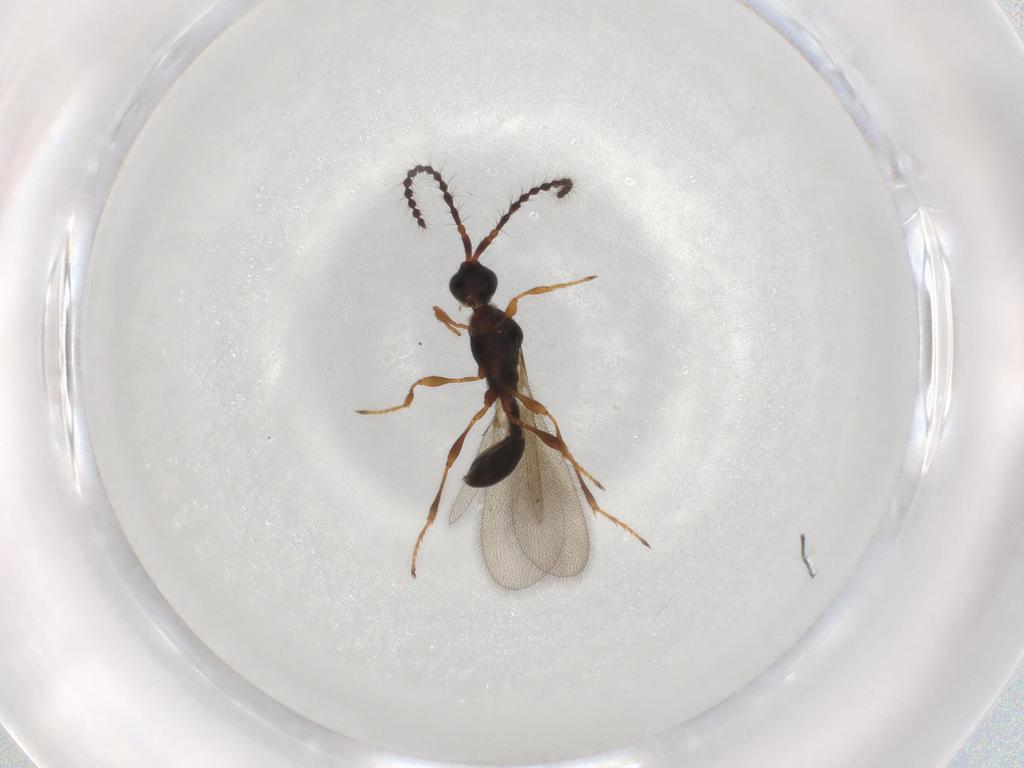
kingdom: Animalia
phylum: Arthropoda
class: Insecta
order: Hymenoptera
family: Diapriidae
